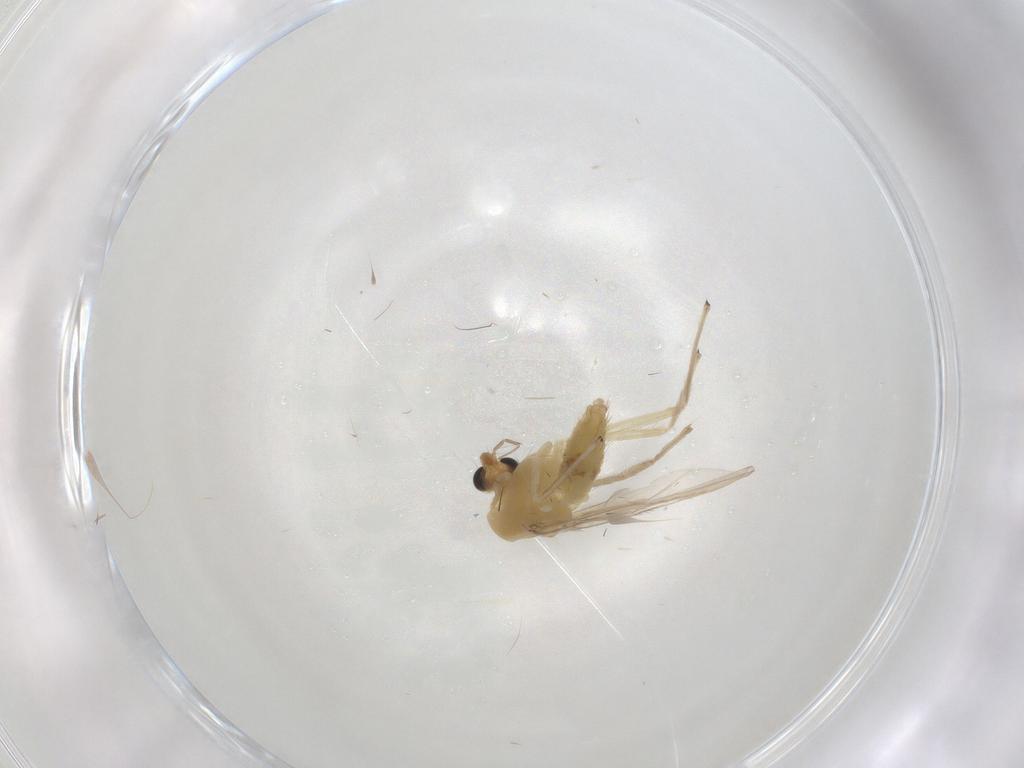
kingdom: Animalia
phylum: Arthropoda
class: Insecta
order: Diptera
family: Chironomidae
